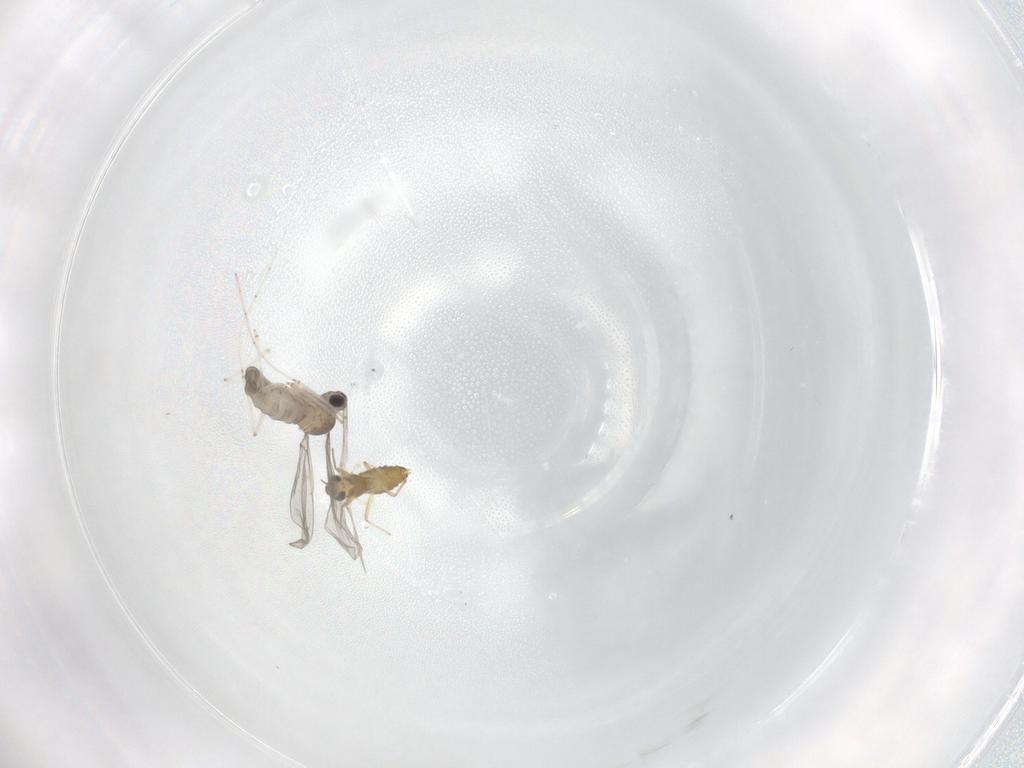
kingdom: Animalia
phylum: Arthropoda
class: Insecta
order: Diptera
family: Cecidomyiidae
